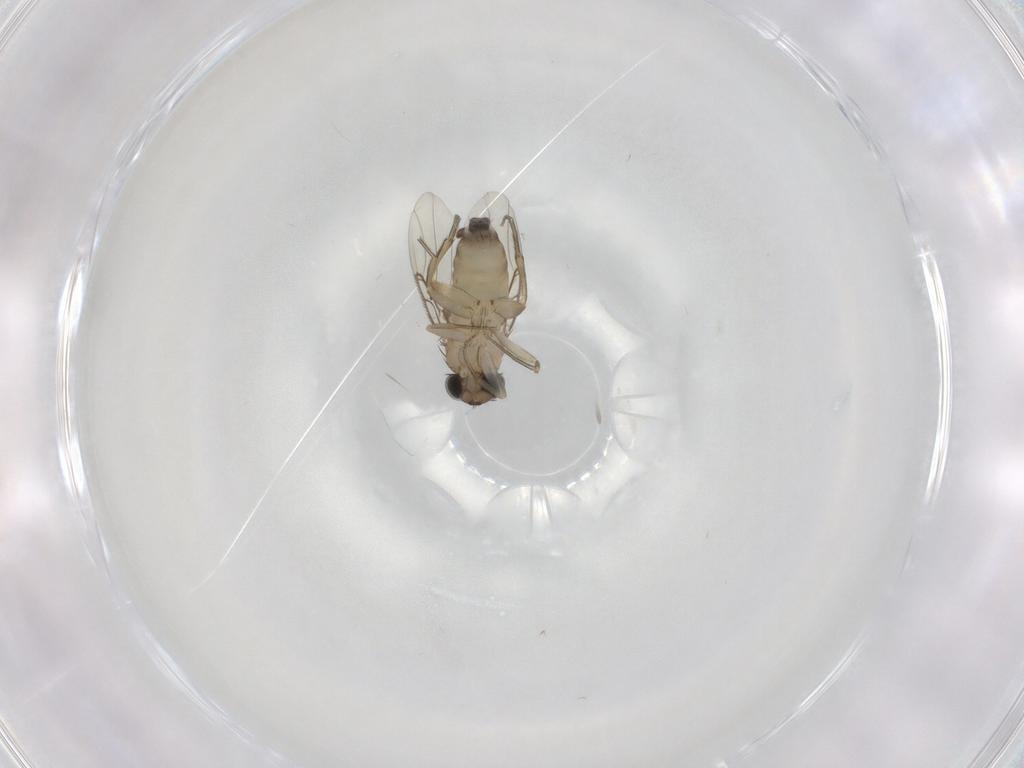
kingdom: Animalia
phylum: Arthropoda
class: Insecta
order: Diptera
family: Phoridae
